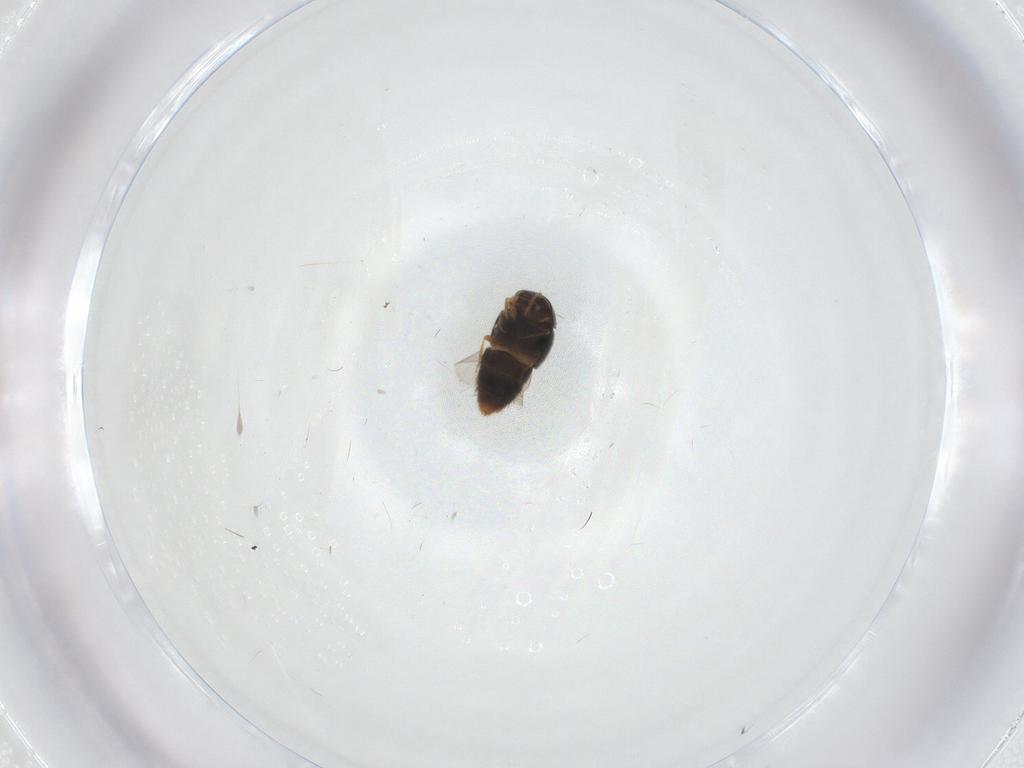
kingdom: Animalia
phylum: Arthropoda
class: Insecta
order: Coleoptera
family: Staphylinidae
